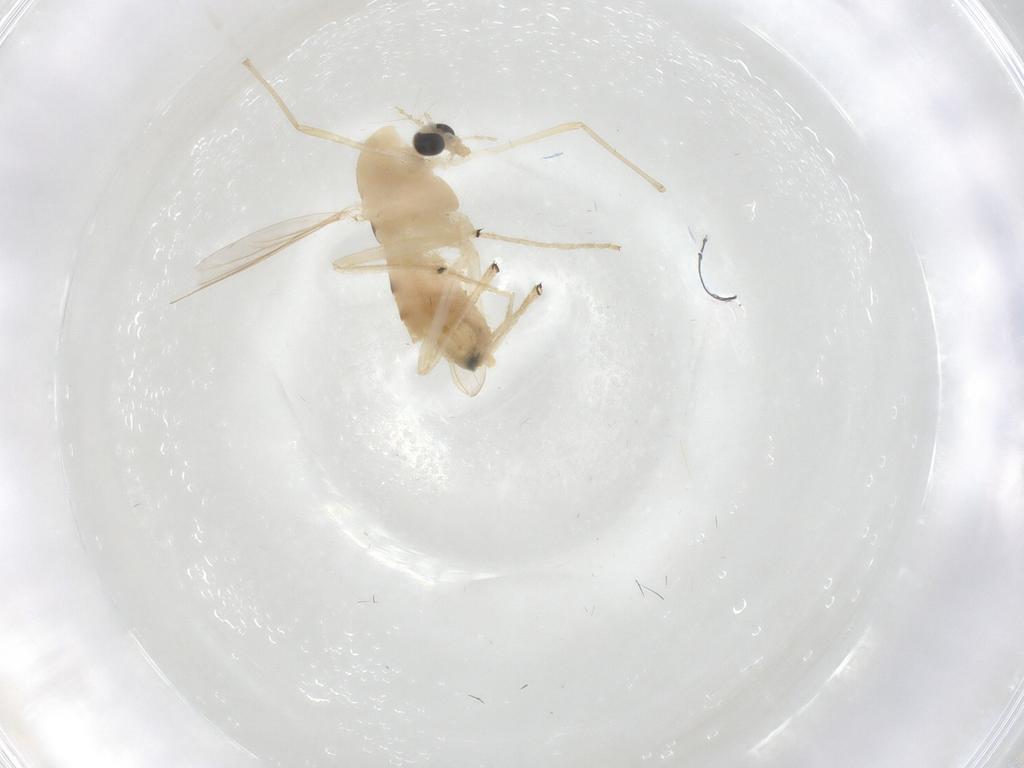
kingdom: Animalia
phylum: Arthropoda
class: Insecta
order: Diptera
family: Chironomidae
